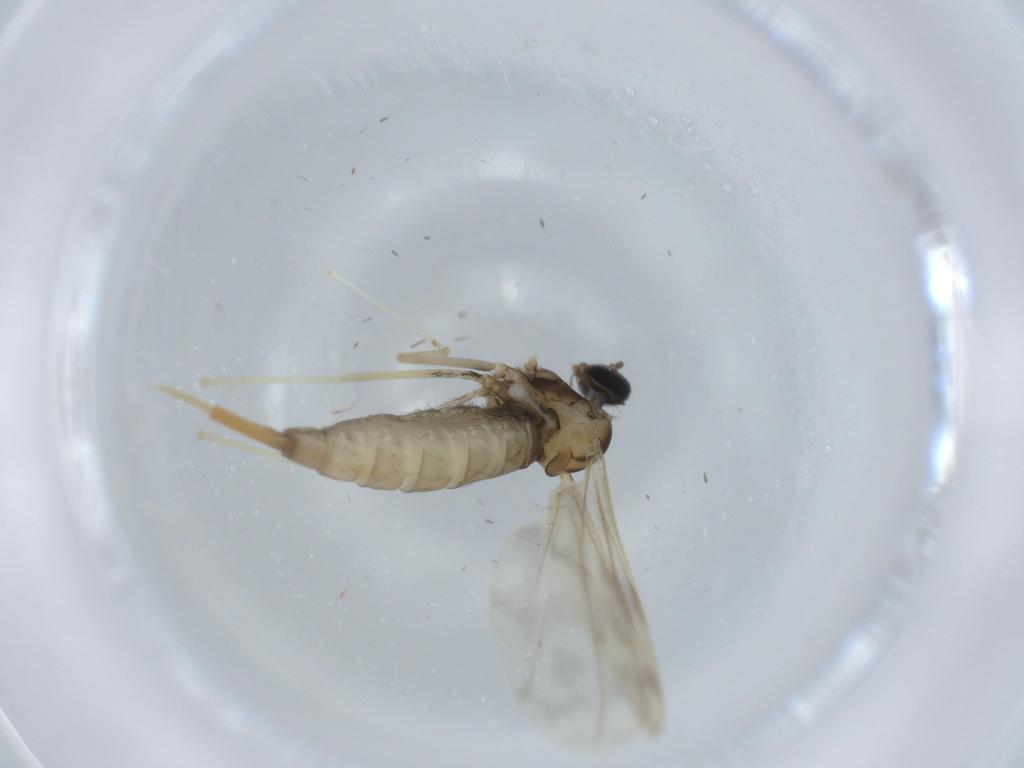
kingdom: Animalia
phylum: Arthropoda
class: Insecta
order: Diptera
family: Cecidomyiidae
